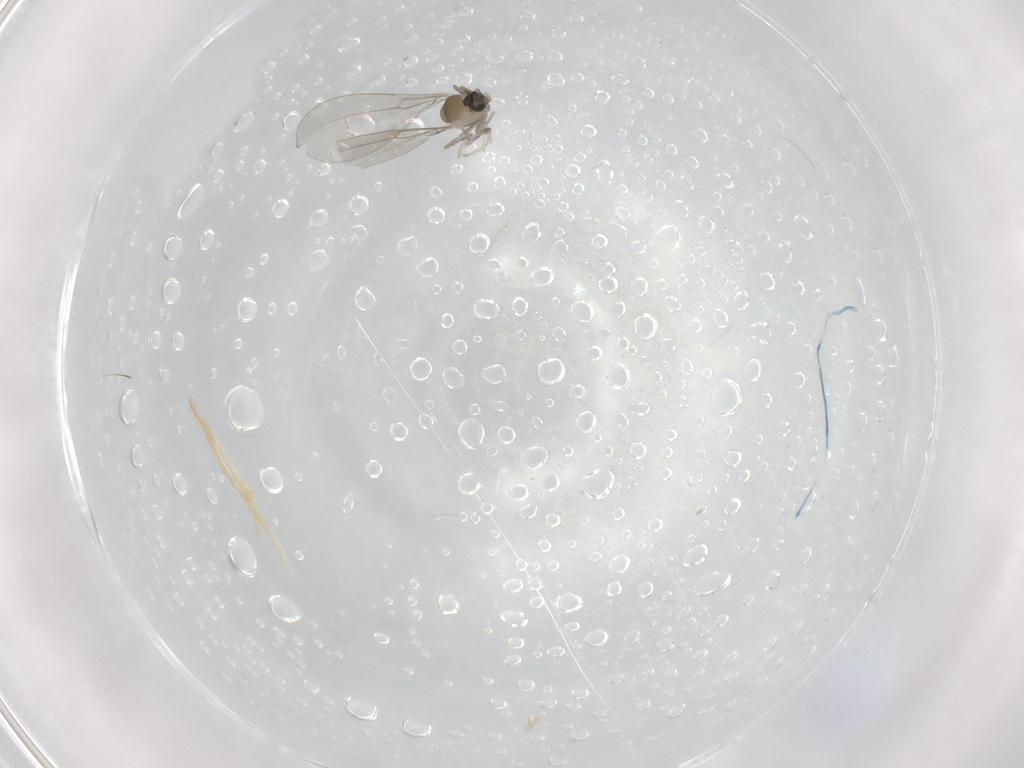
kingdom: Animalia
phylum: Arthropoda
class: Insecta
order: Diptera
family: Cecidomyiidae
